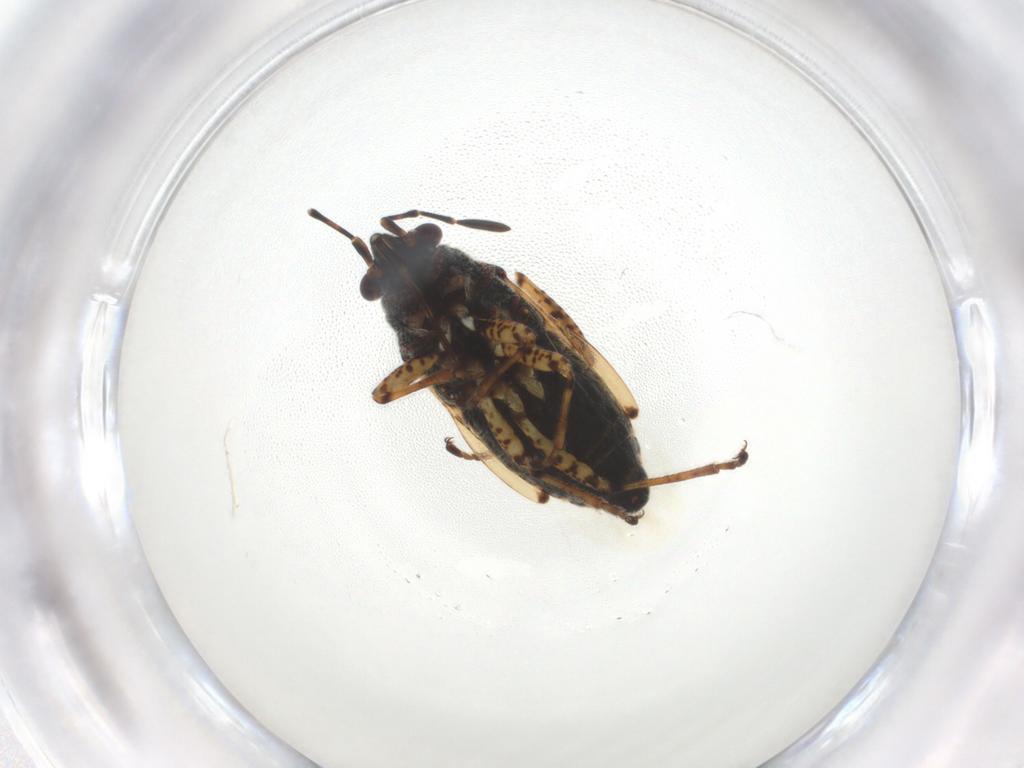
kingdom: Animalia
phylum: Arthropoda
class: Insecta
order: Hemiptera
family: Lygaeidae
